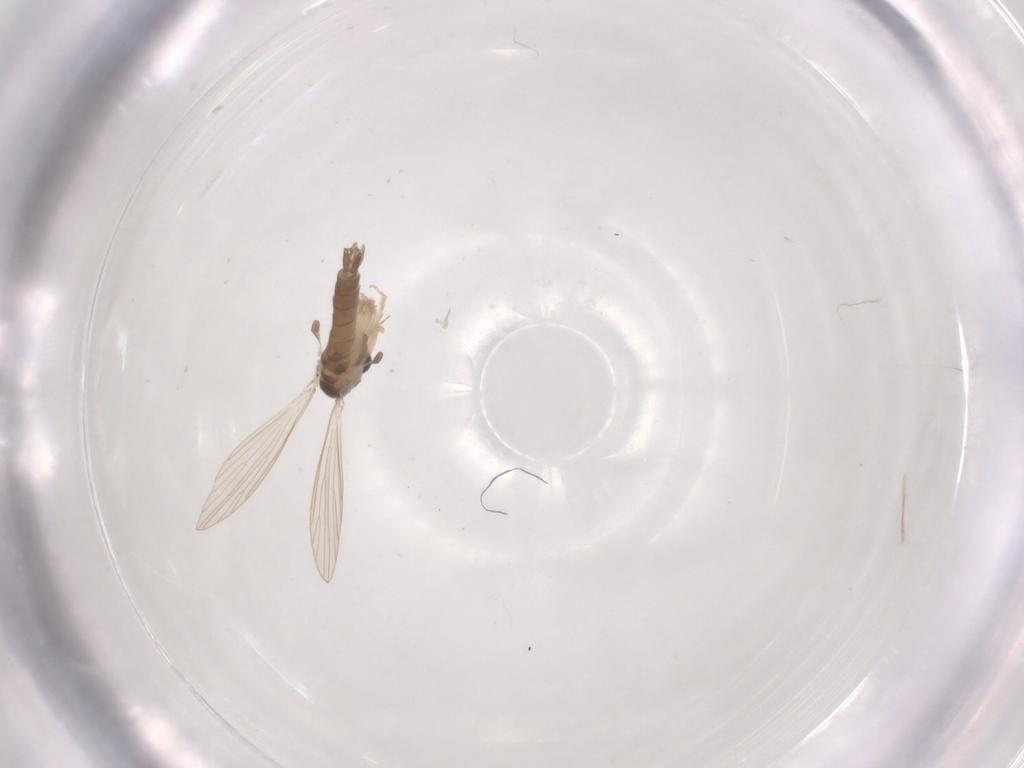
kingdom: Animalia
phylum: Arthropoda
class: Insecta
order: Diptera
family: Psychodidae
